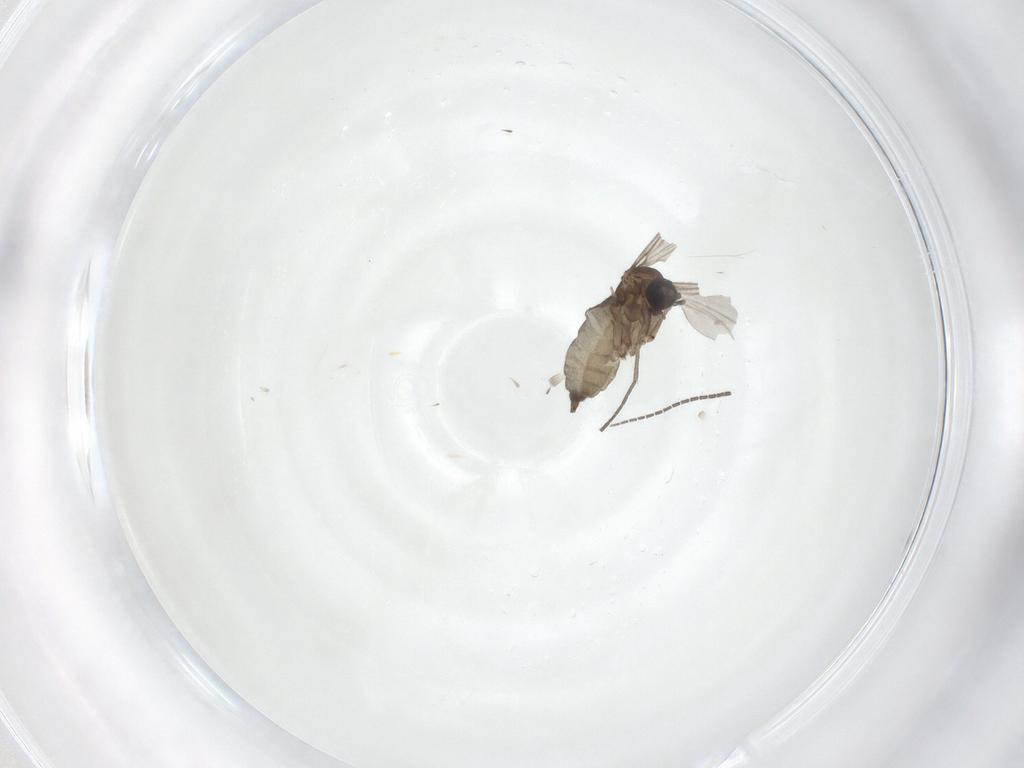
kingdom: Animalia
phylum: Arthropoda
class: Insecta
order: Diptera
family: Sciaridae
